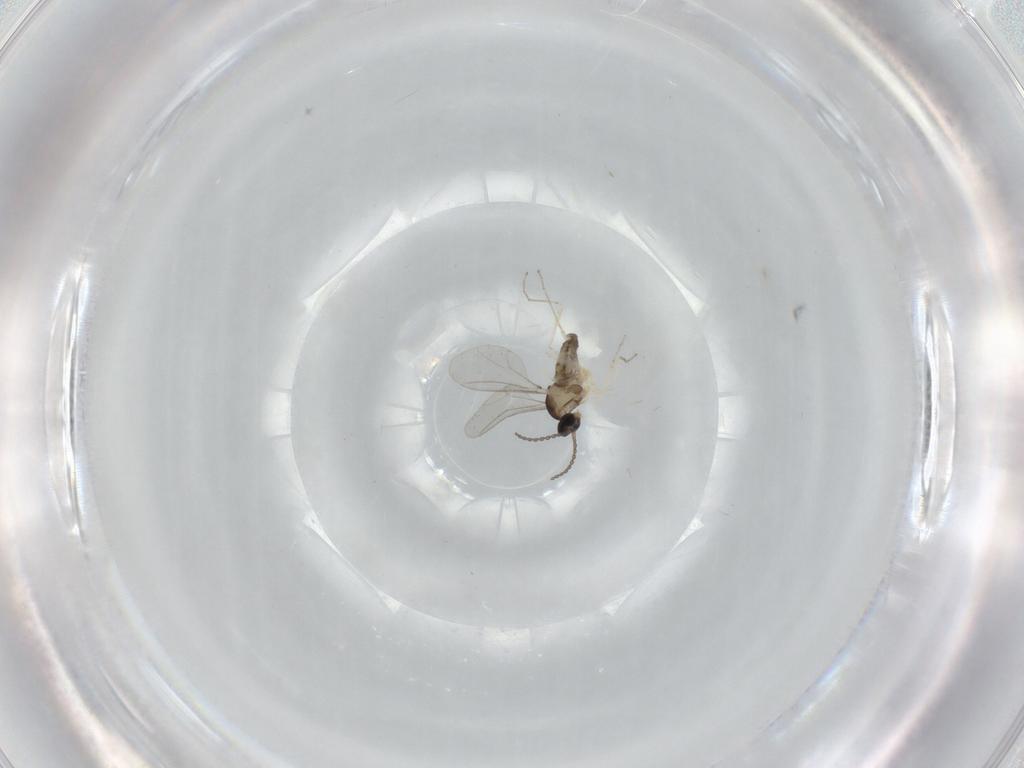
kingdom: Animalia
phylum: Arthropoda
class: Insecta
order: Diptera
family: Cecidomyiidae
